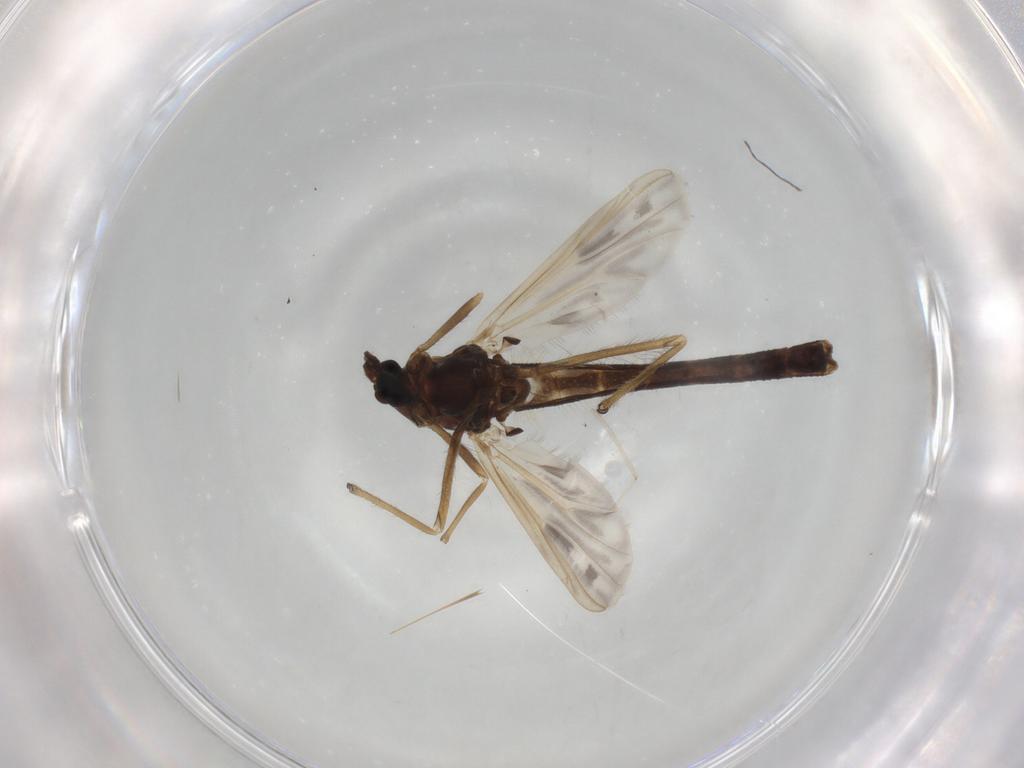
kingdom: Animalia
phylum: Arthropoda
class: Insecta
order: Diptera
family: Chironomidae
